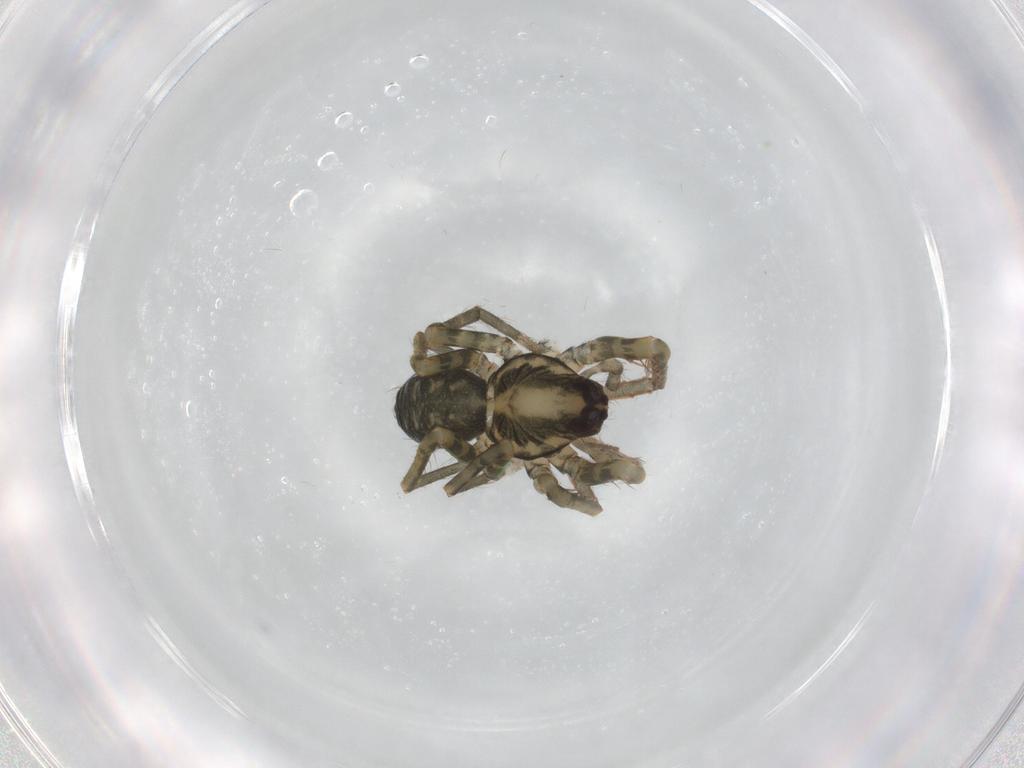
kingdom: Animalia
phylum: Arthropoda
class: Arachnida
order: Araneae
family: Ctenidae
